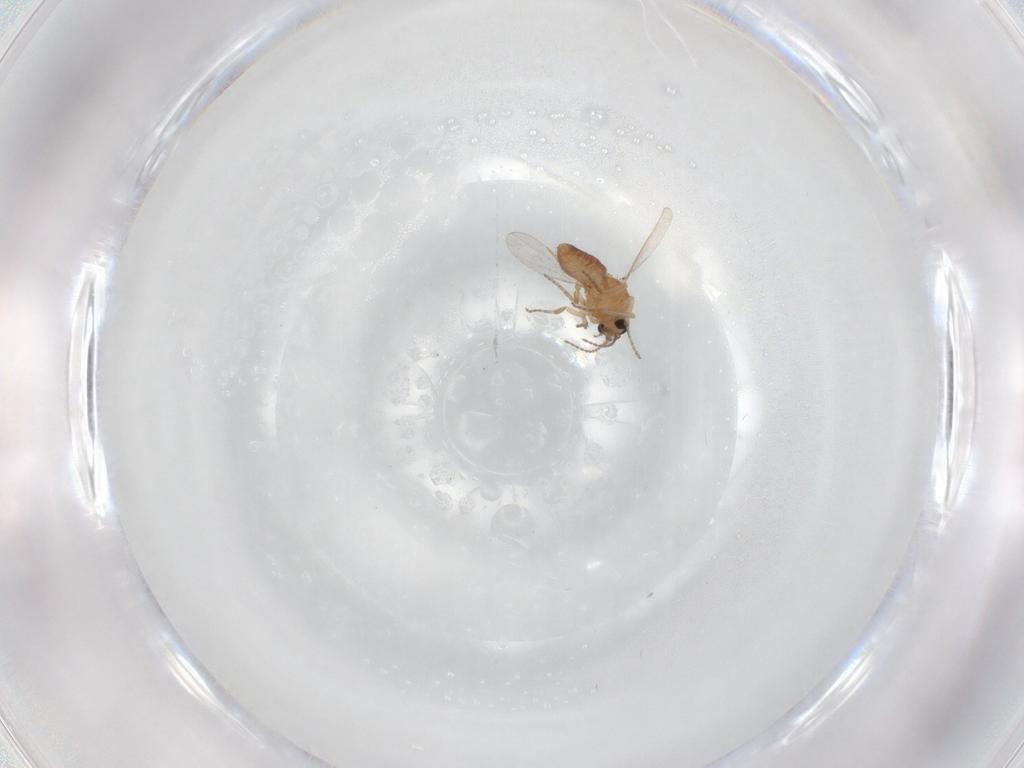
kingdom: Animalia
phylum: Arthropoda
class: Insecta
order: Diptera
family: Ceratopogonidae
